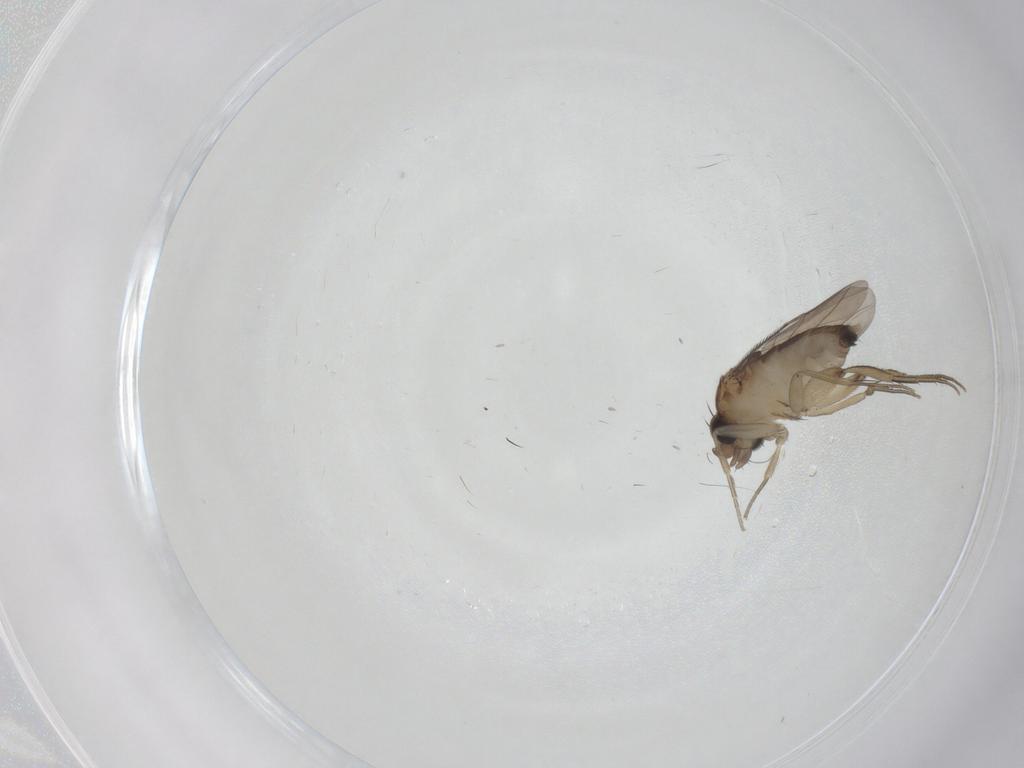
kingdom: Animalia
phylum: Arthropoda
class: Insecta
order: Diptera
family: Phoridae
